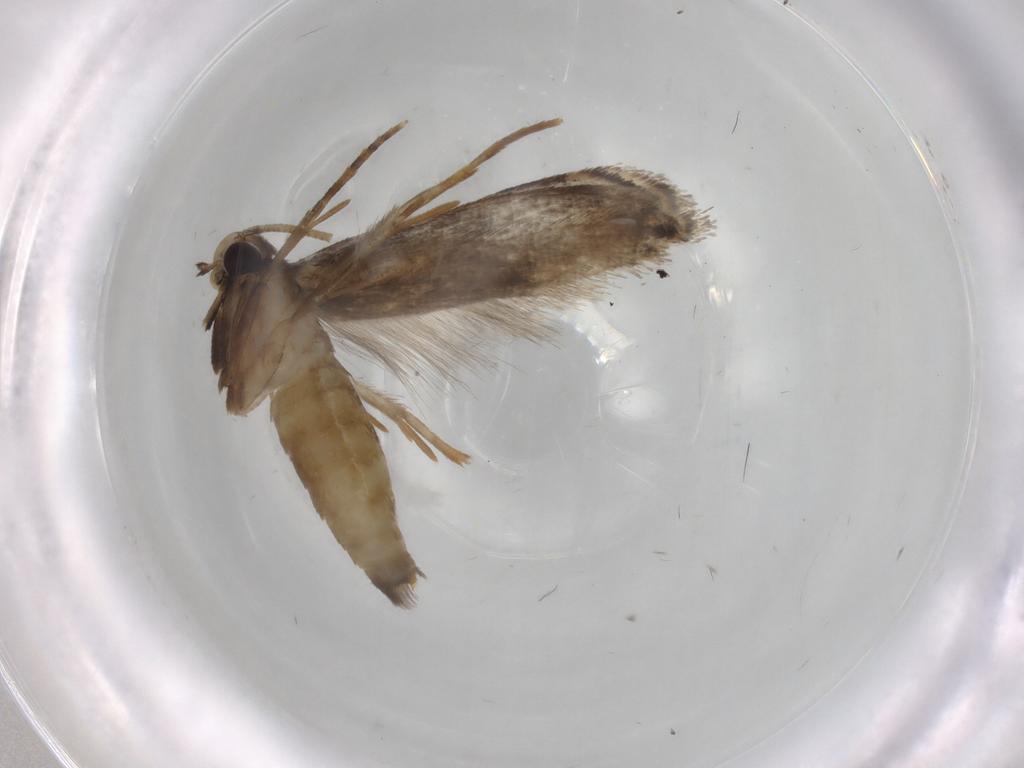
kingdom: Animalia
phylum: Arthropoda
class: Insecta
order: Lepidoptera
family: Tineidae
